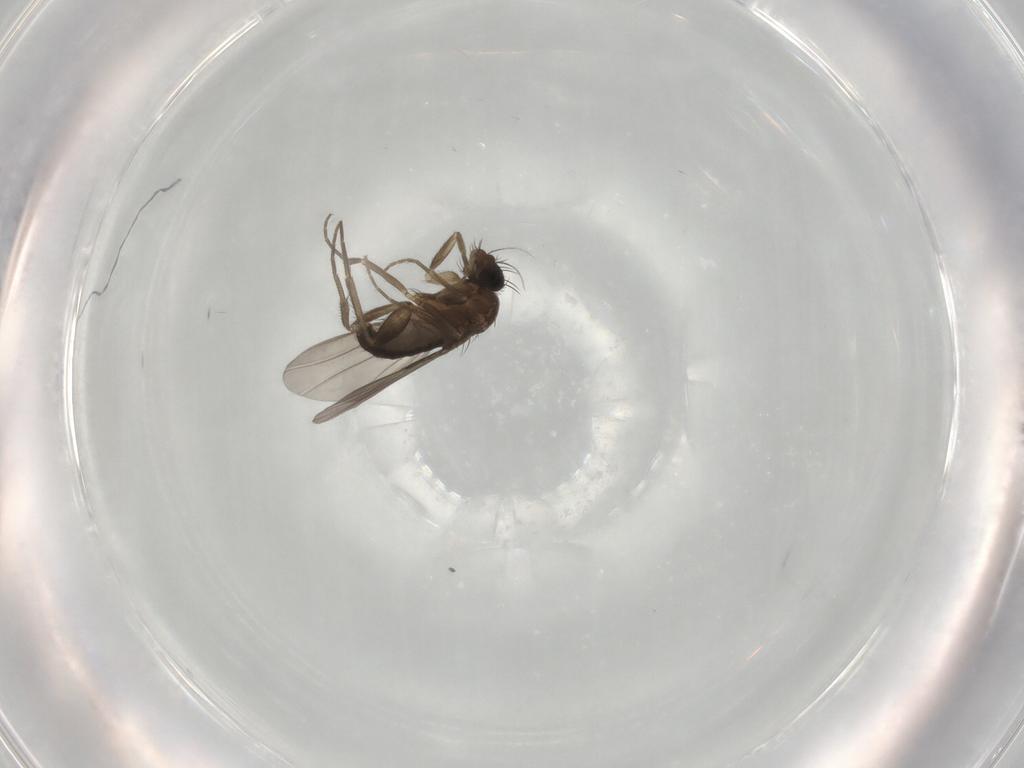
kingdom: Animalia
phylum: Arthropoda
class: Insecta
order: Diptera
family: Phoridae
